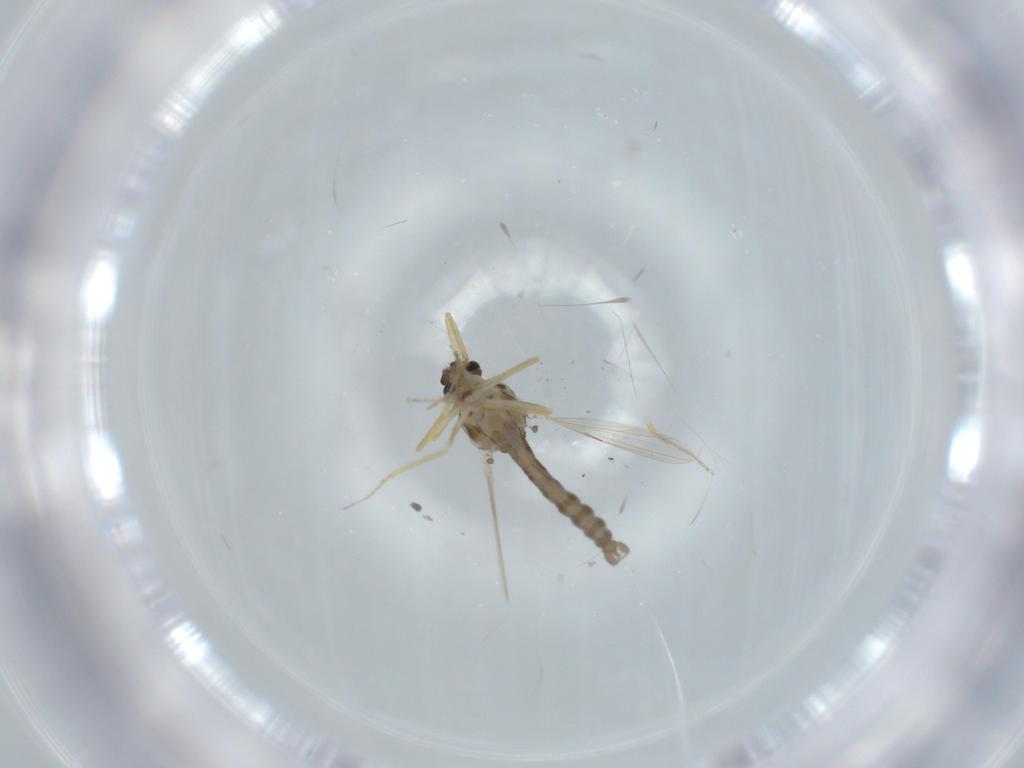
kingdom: Animalia
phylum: Arthropoda
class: Insecta
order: Diptera
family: Ceratopogonidae
